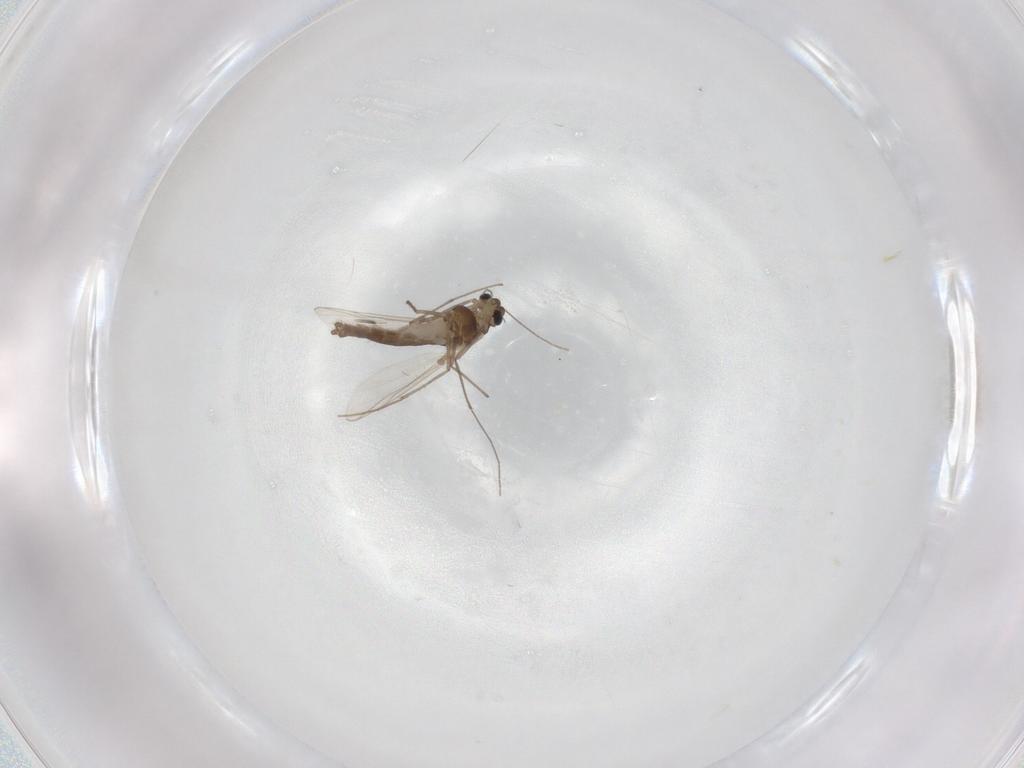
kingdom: Animalia
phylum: Arthropoda
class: Insecta
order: Diptera
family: Chironomidae
